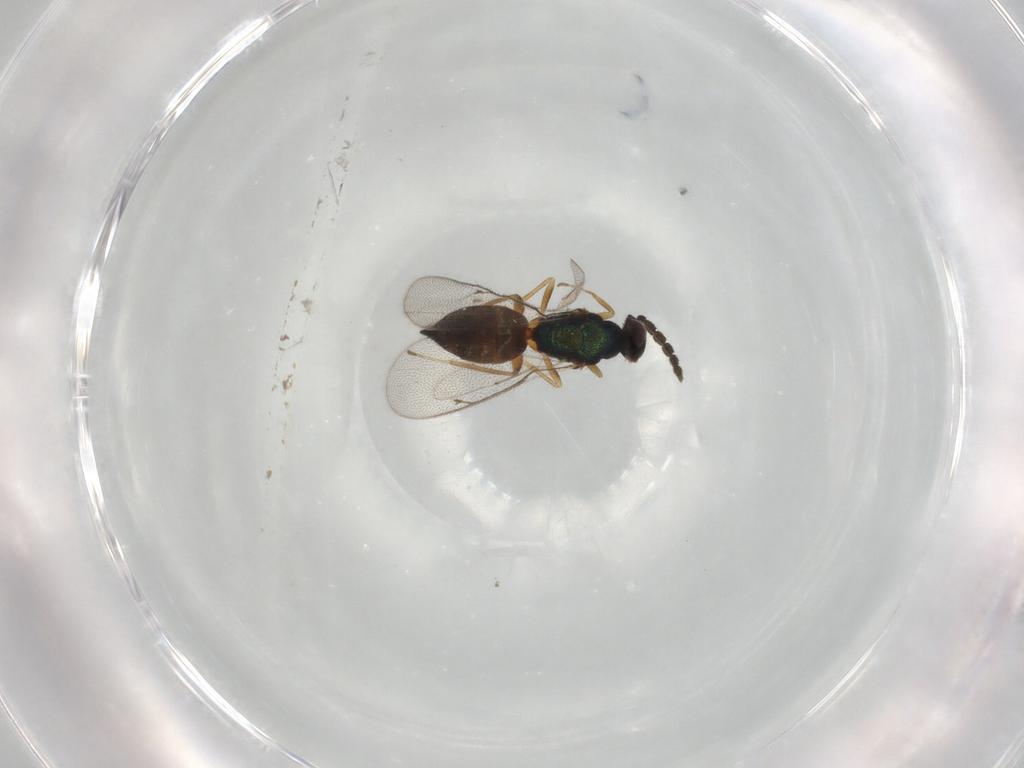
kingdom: Animalia
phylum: Arthropoda
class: Insecta
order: Hymenoptera
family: Eulophidae
